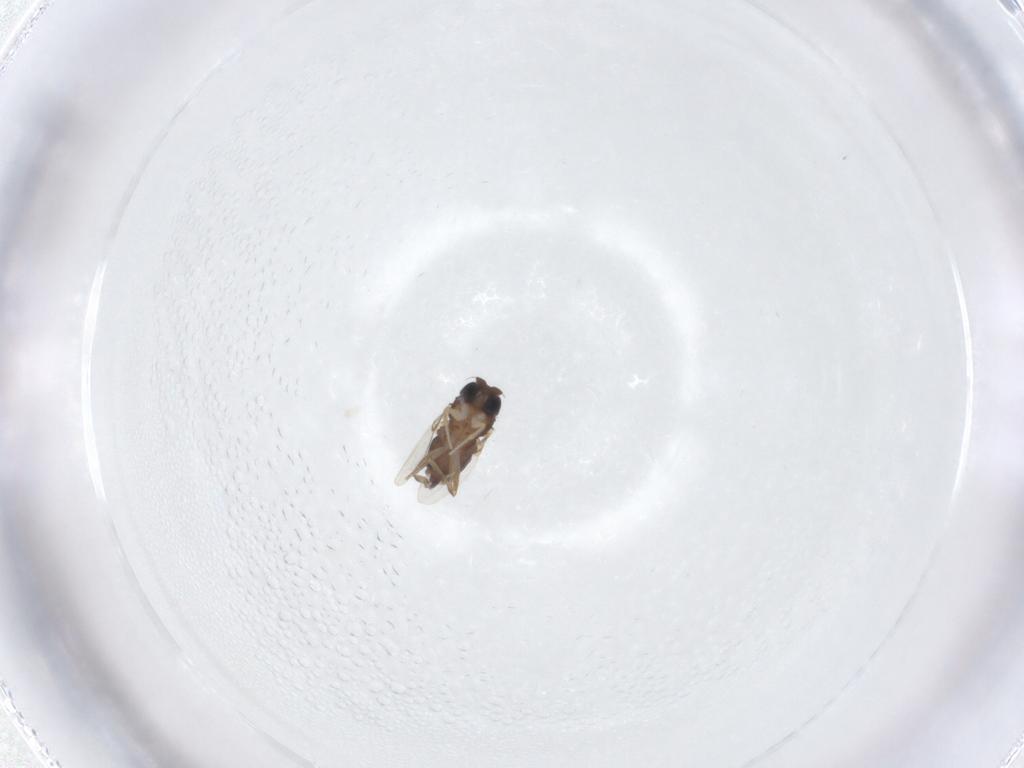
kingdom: Animalia
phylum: Arthropoda
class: Insecta
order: Diptera
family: Phoridae
